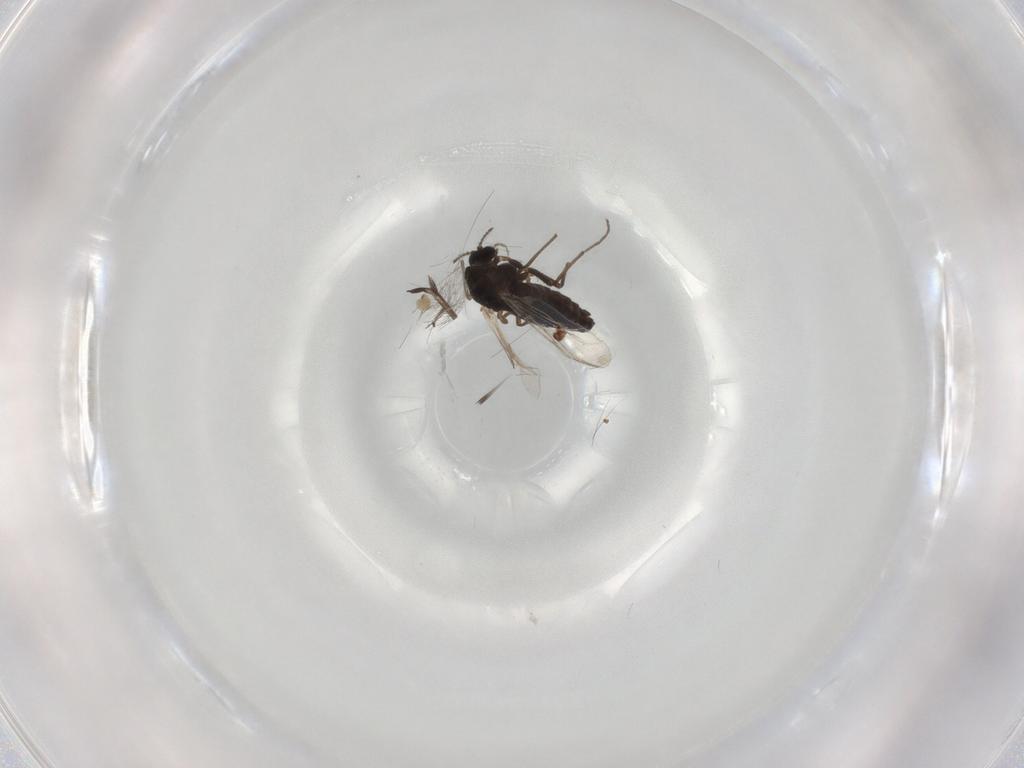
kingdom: Animalia
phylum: Arthropoda
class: Insecta
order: Diptera
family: Chironomidae
